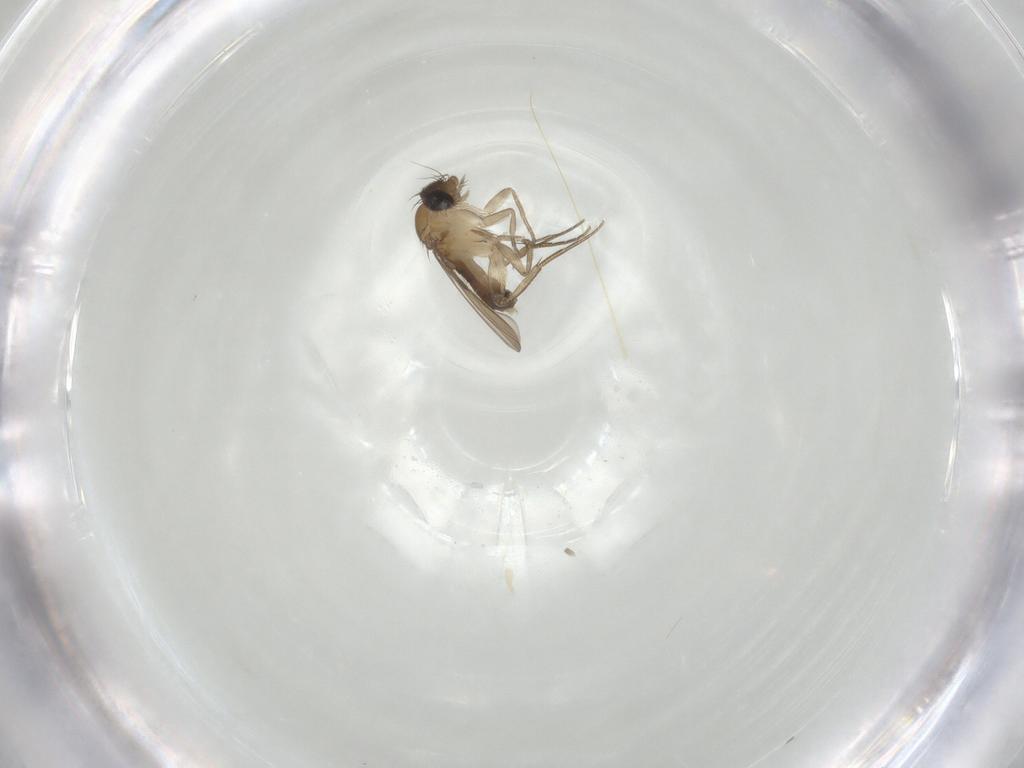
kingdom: Animalia
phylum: Arthropoda
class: Insecta
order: Diptera
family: Phoridae
